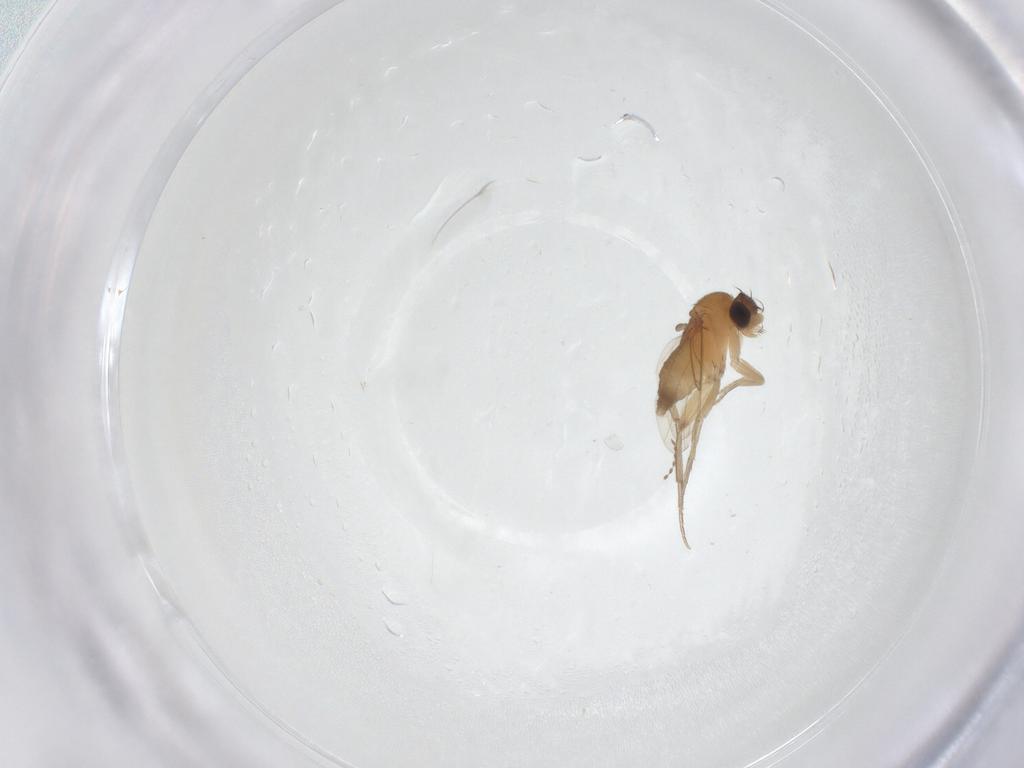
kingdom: Animalia
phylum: Arthropoda
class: Insecta
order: Diptera
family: Phoridae
